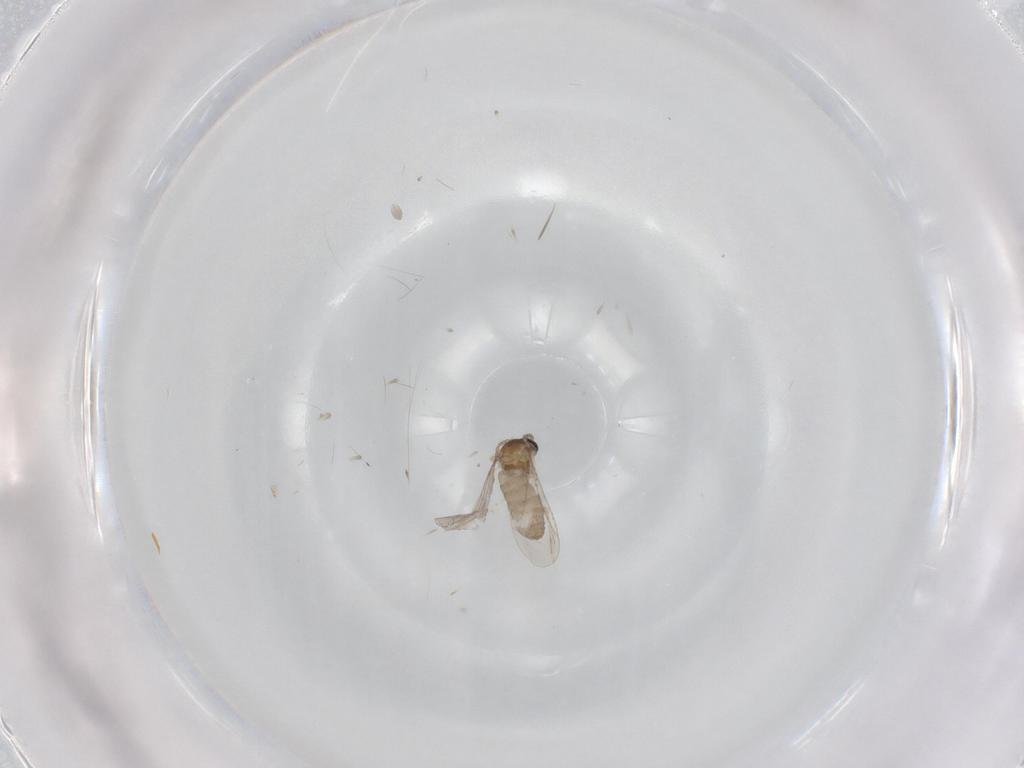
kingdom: Animalia
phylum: Arthropoda
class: Insecta
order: Diptera
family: Cecidomyiidae
